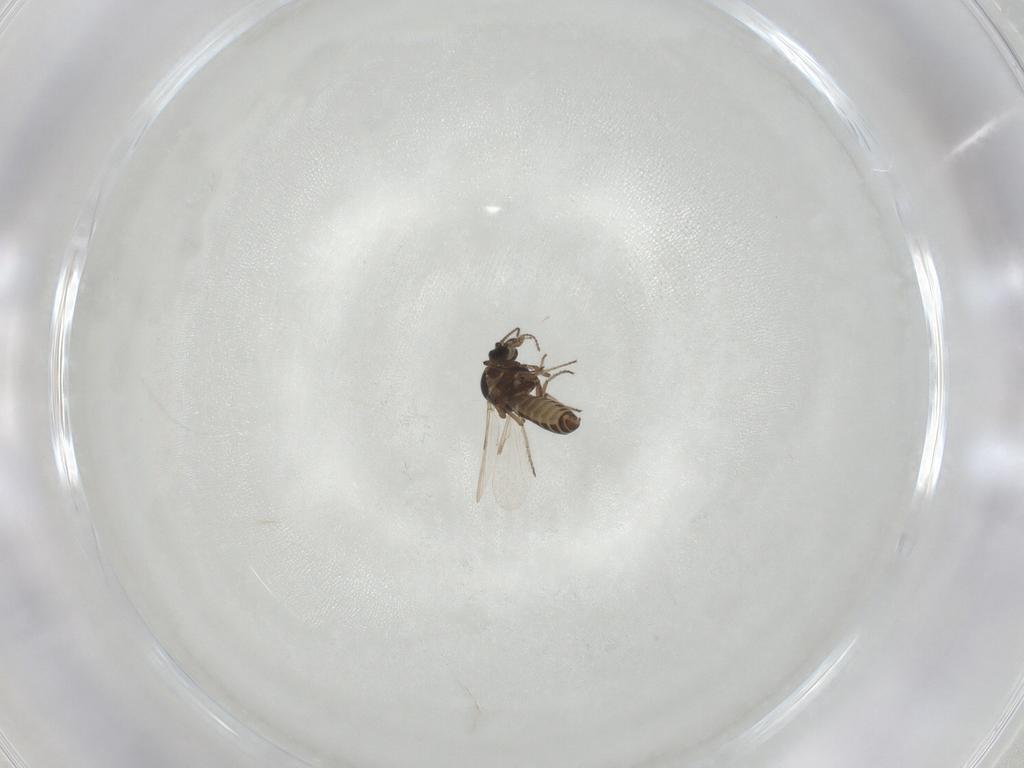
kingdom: Animalia
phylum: Arthropoda
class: Insecta
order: Diptera
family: Ceratopogonidae
